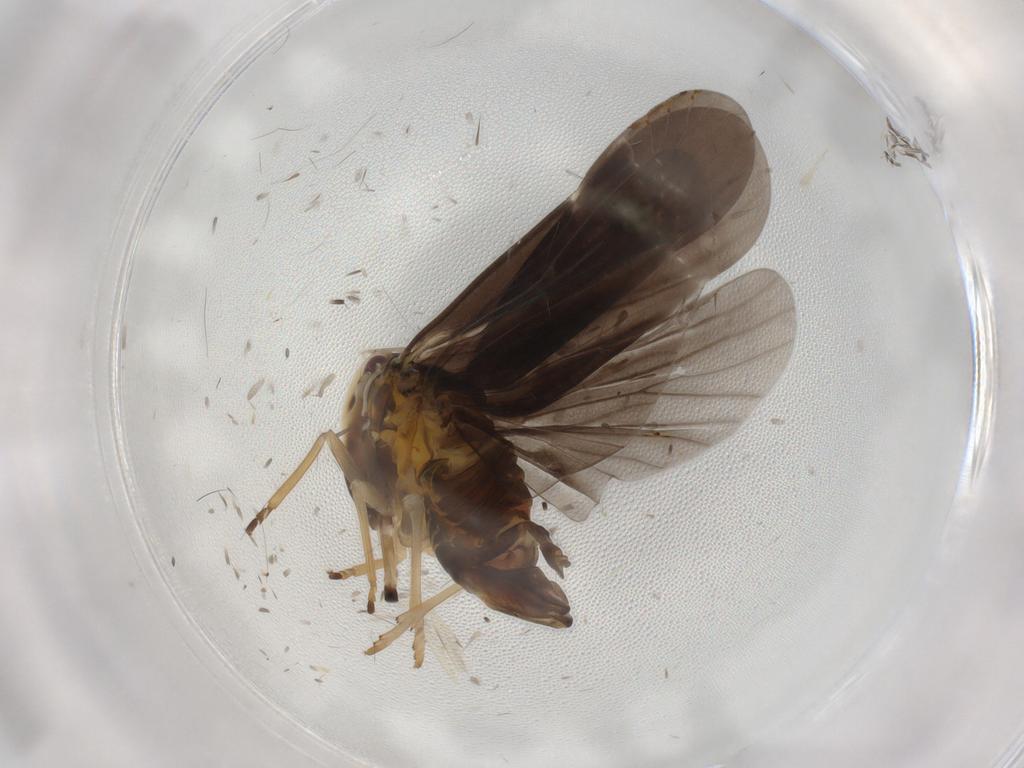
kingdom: Animalia
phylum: Arthropoda
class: Insecta
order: Hemiptera
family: Derbidae
